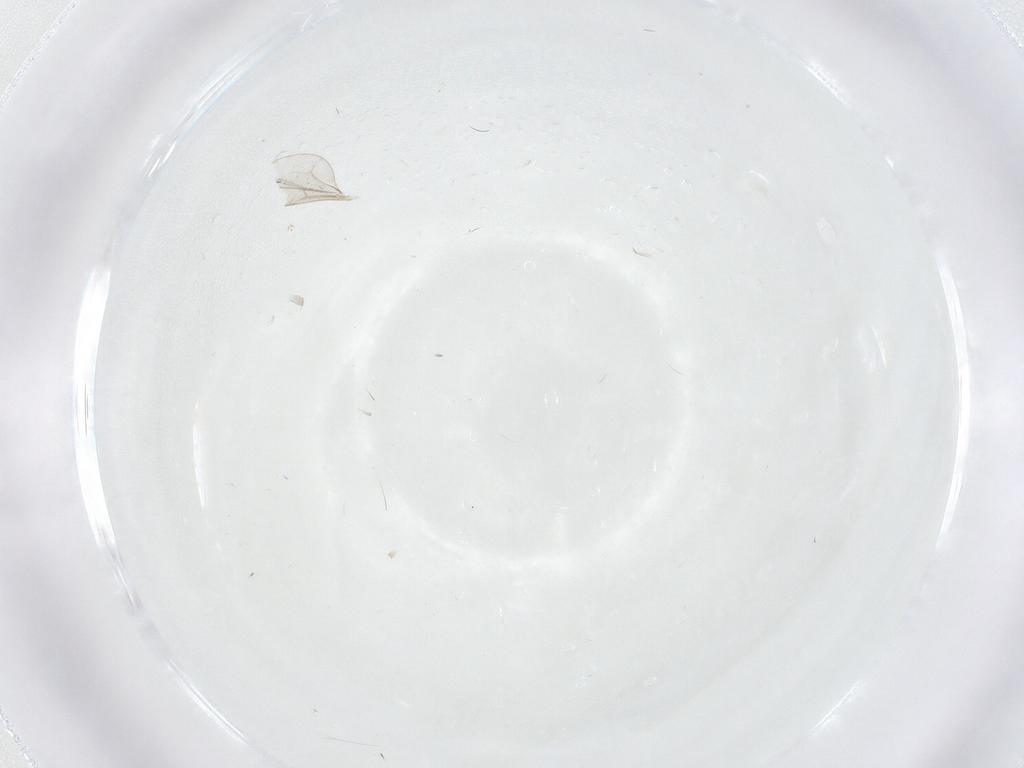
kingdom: Animalia
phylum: Arthropoda
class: Insecta
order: Diptera
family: Cecidomyiidae
